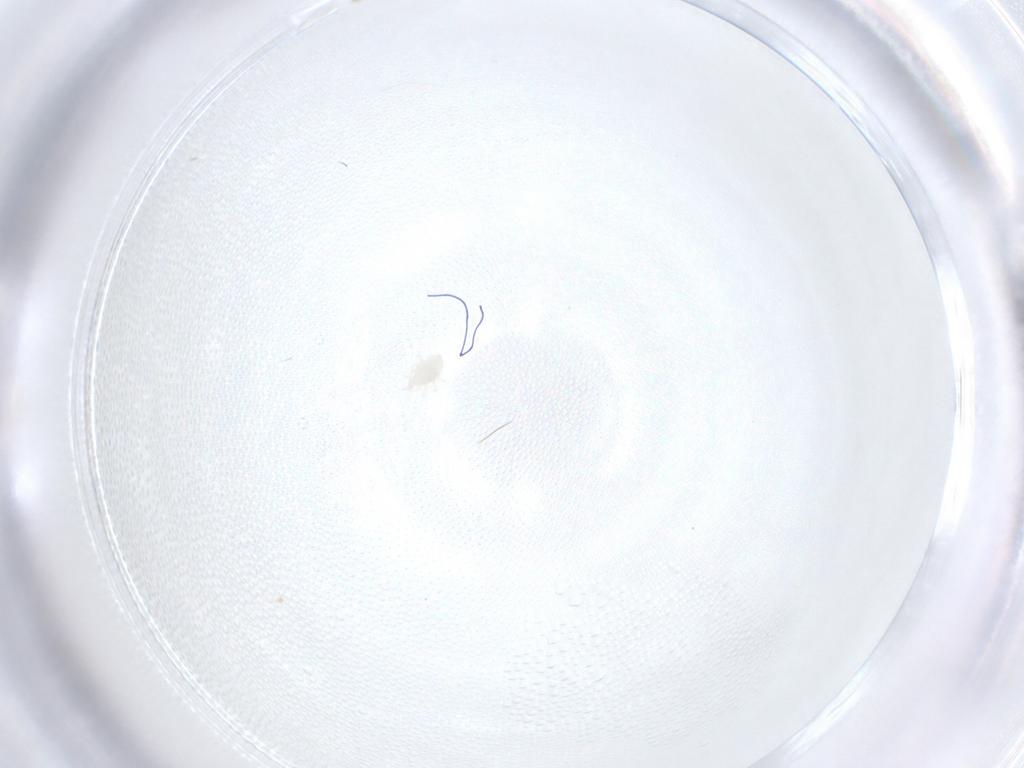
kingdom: Animalia
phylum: Arthropoda
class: Arachnida
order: Mesostigmata
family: Melicharidae
